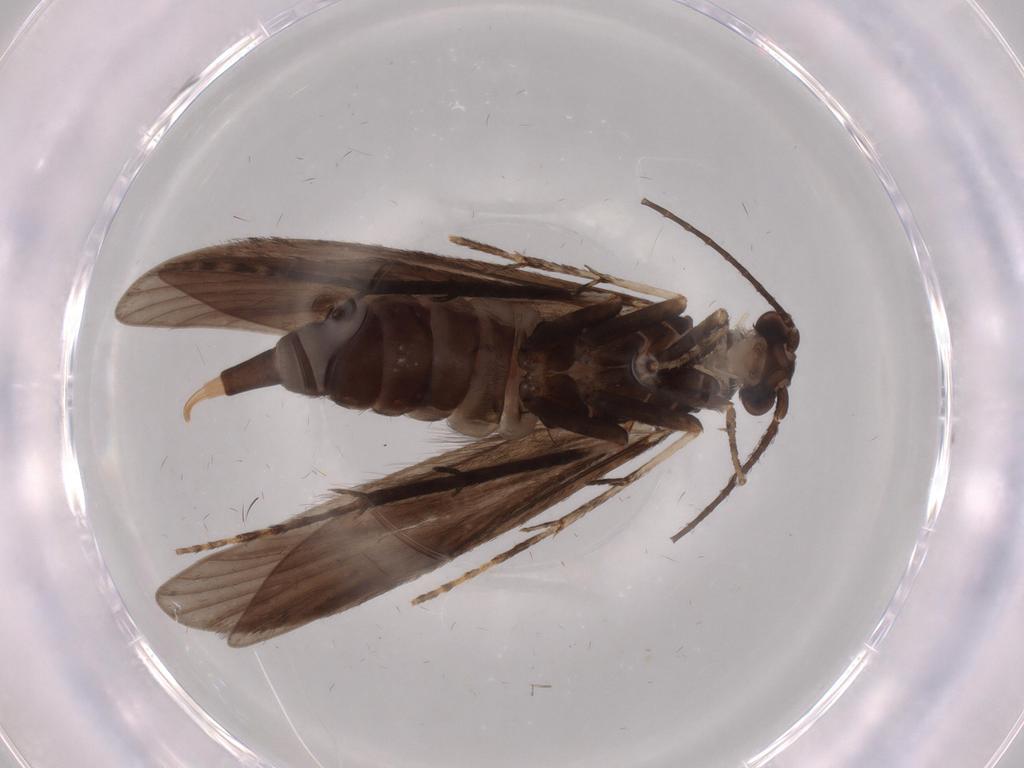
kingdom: Animalia
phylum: Arthropoda
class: Insecta
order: Trichoptera
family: Xiphocentronidae
